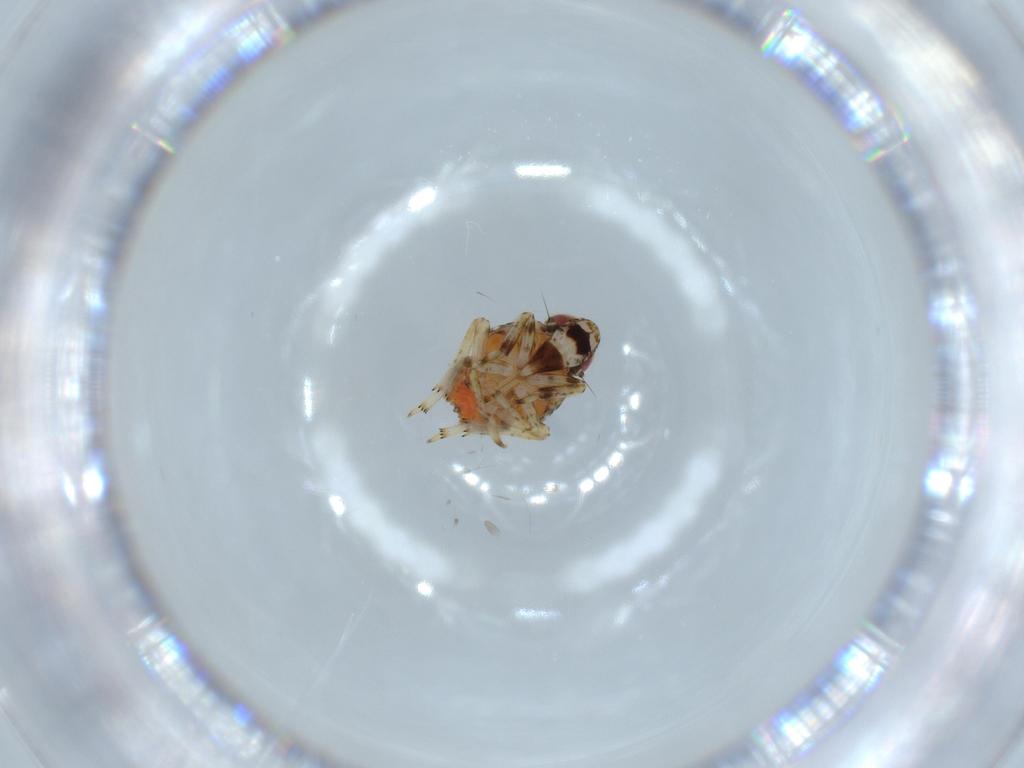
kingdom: Animalia
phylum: Arthropoda
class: Insecta
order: Hemiptera
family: Issidae
